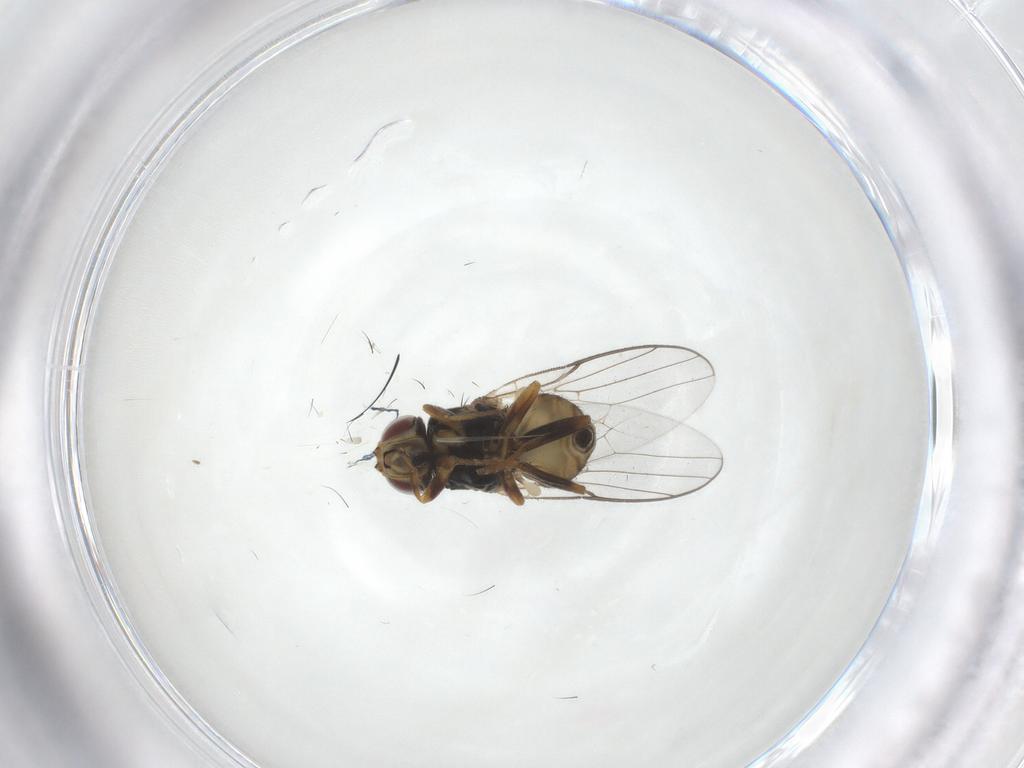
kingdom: Animalia
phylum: Arthropoda
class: Insecta
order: Diptera
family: Chloropidae
